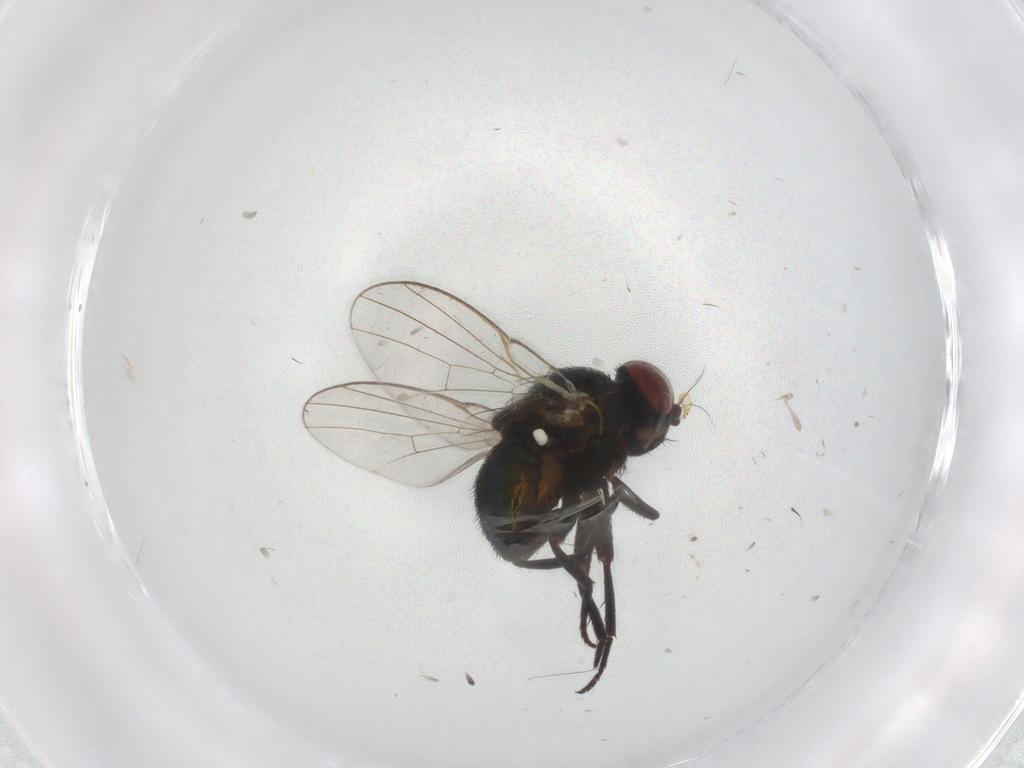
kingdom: Animalia
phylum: Arthropoda
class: Insecta
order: Diptera
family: Agromyzidae
